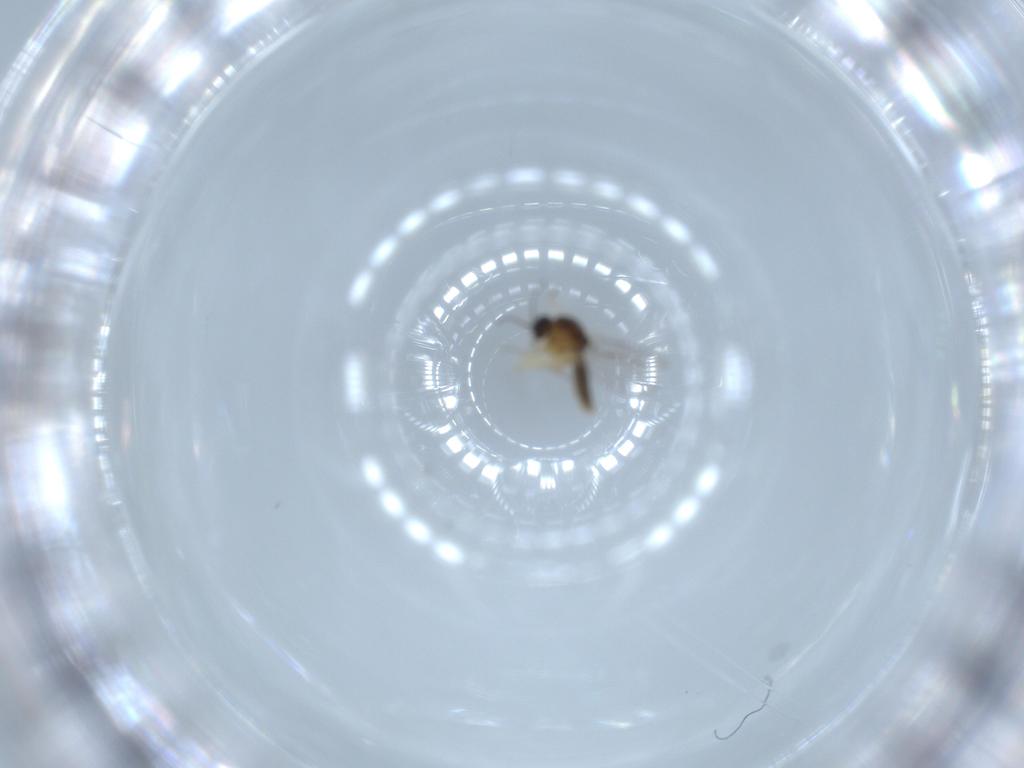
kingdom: Animalia
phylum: Arthropoda
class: Insecta
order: Diptera
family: Ceratopogonidae
